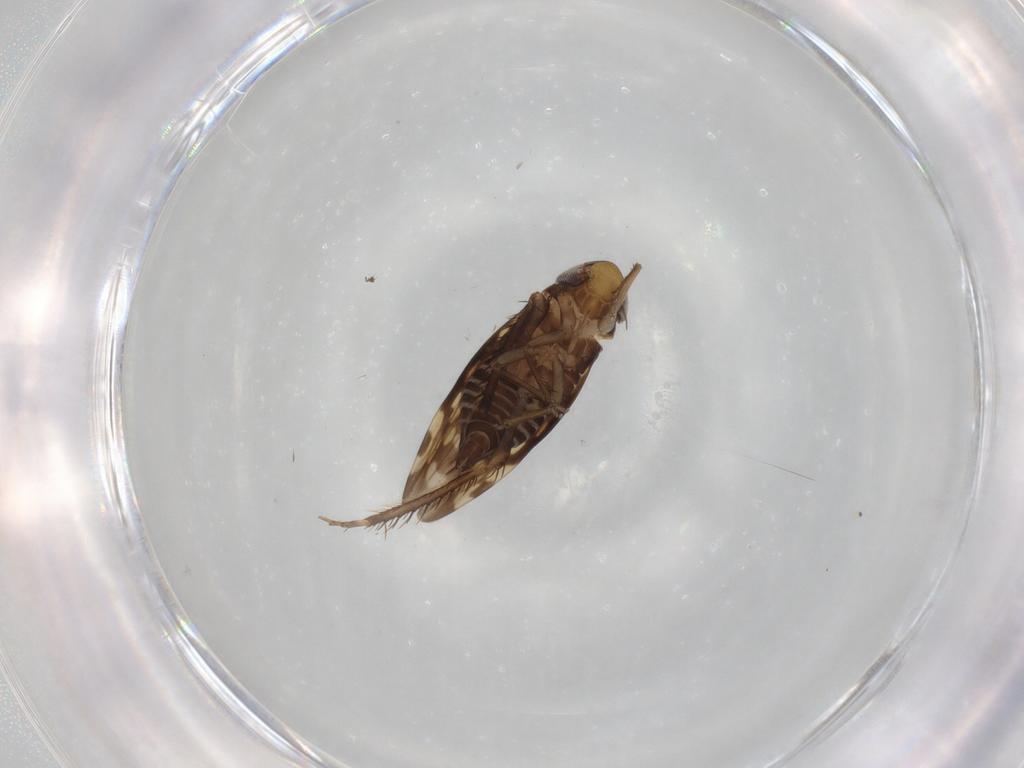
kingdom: Animalia
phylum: Arthropoda
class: Insecta
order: Hemiptera
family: Cicadellidae
